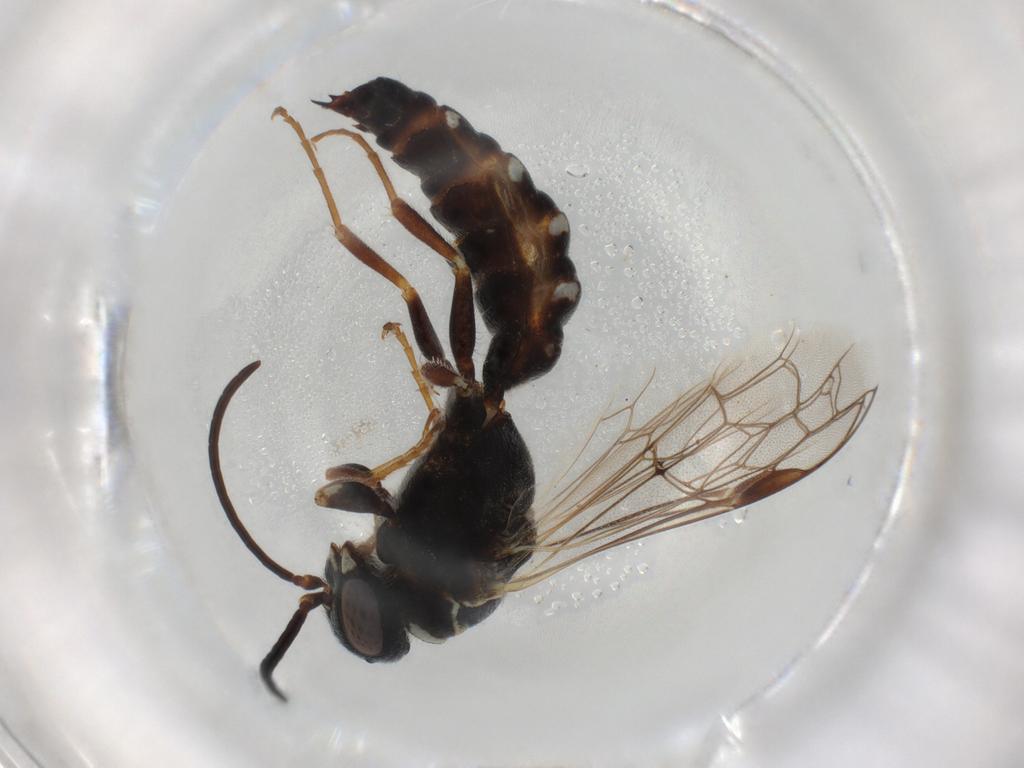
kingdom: Animalia
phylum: Arthropoda
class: Insecta
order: Hymenoptera
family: Thynnidae
